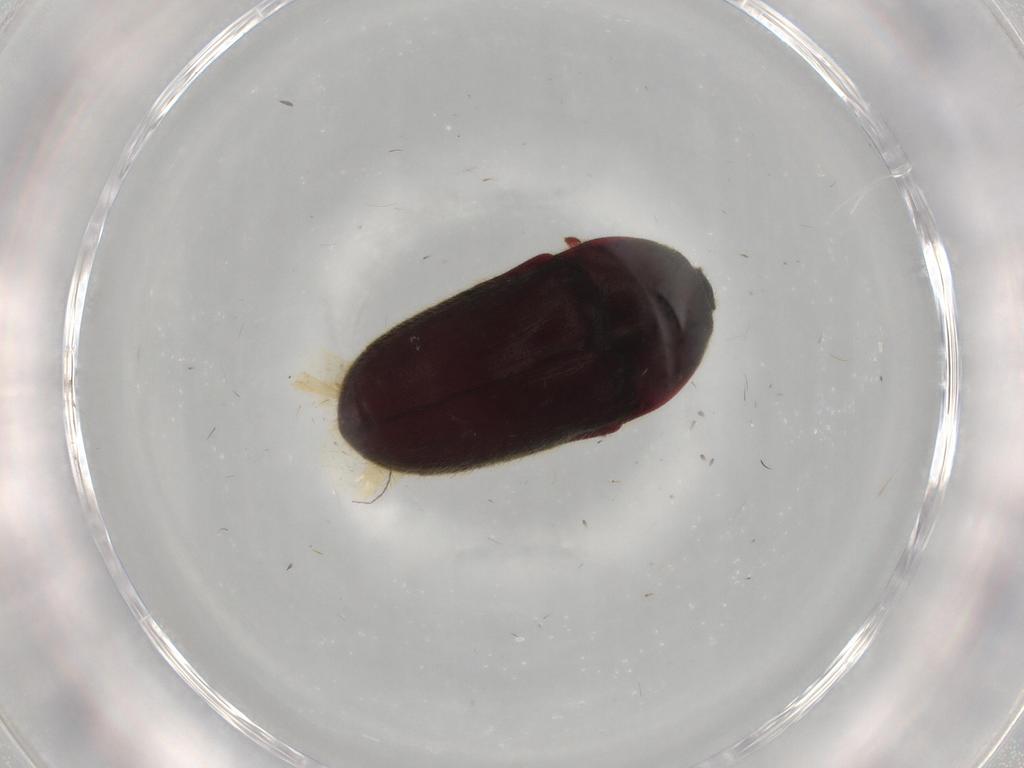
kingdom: Animalia
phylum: Arthropoda
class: Insecta
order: Coleoptera
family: Throscidae
